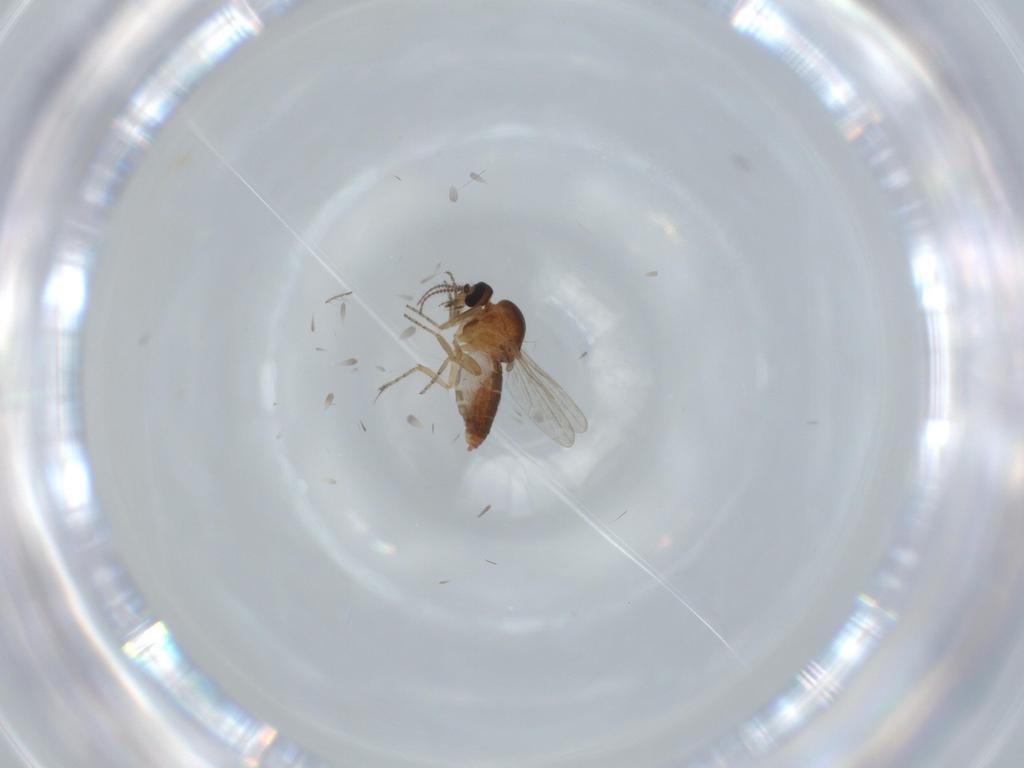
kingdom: Animalia
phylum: Arthropoda
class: Insecta
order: Diptera
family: Ceratopogonidae
